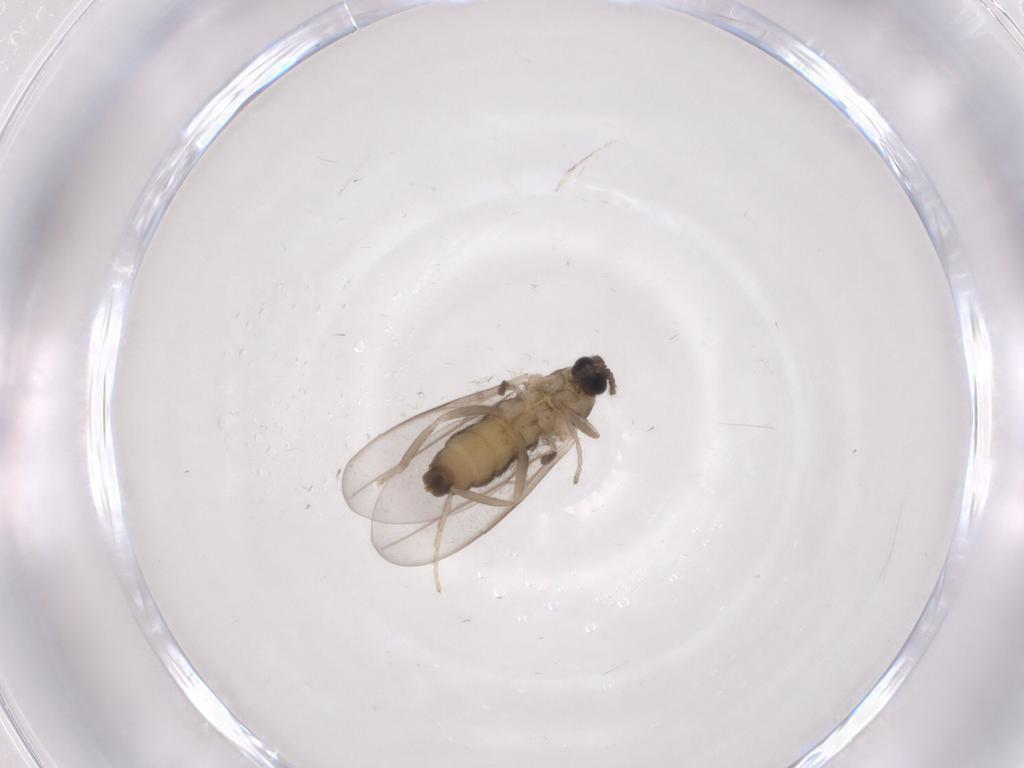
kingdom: Animalia
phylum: Arthropoda
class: Insecta
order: Diptera
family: Cecidomyiidae
